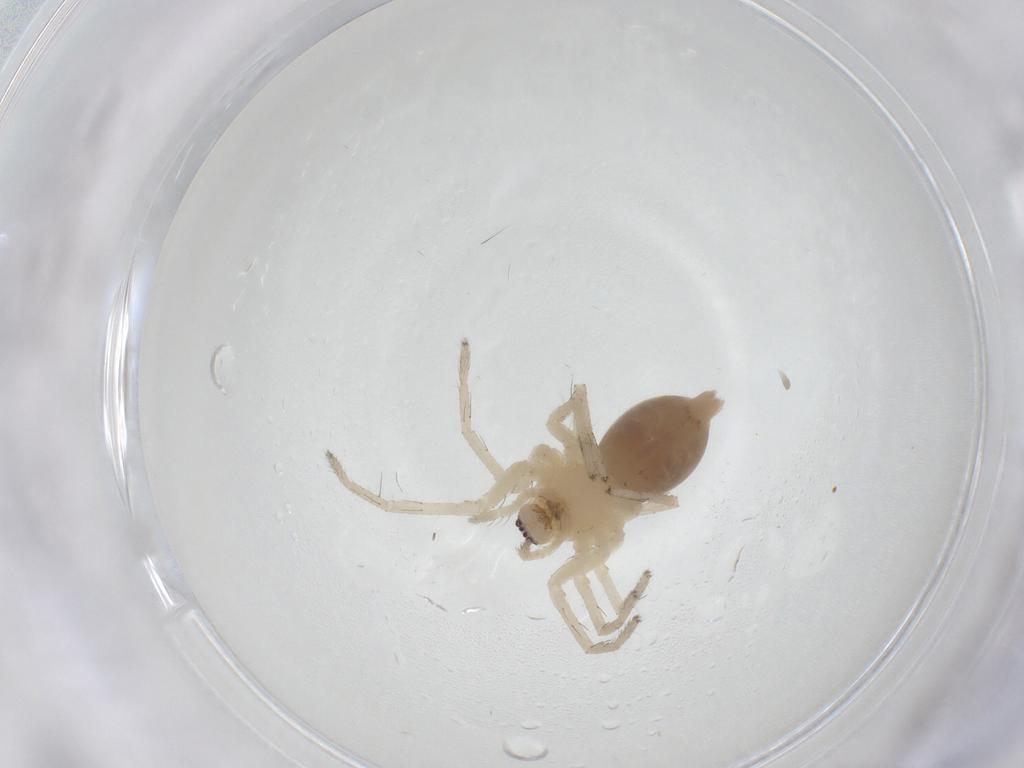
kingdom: Animalia
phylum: Arthropoda
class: Arachnida
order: Araneae
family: Anyphaenidae
